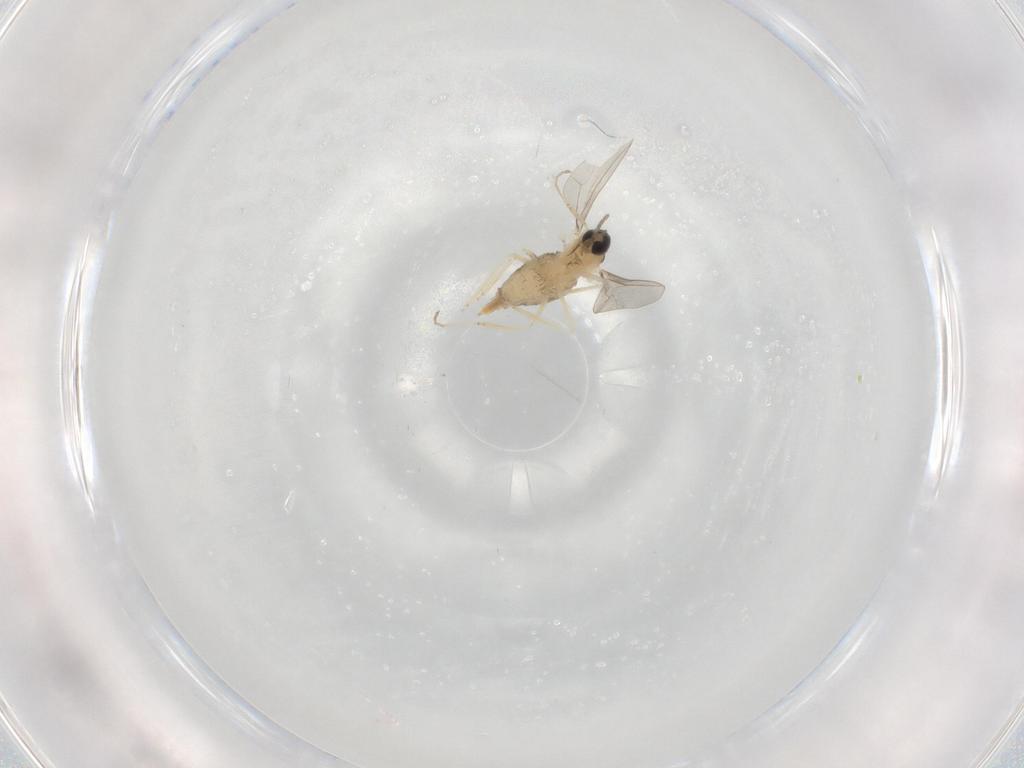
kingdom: Animalia
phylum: Arthropoda
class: Insecta
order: Diptera
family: Cecidomyiidae
